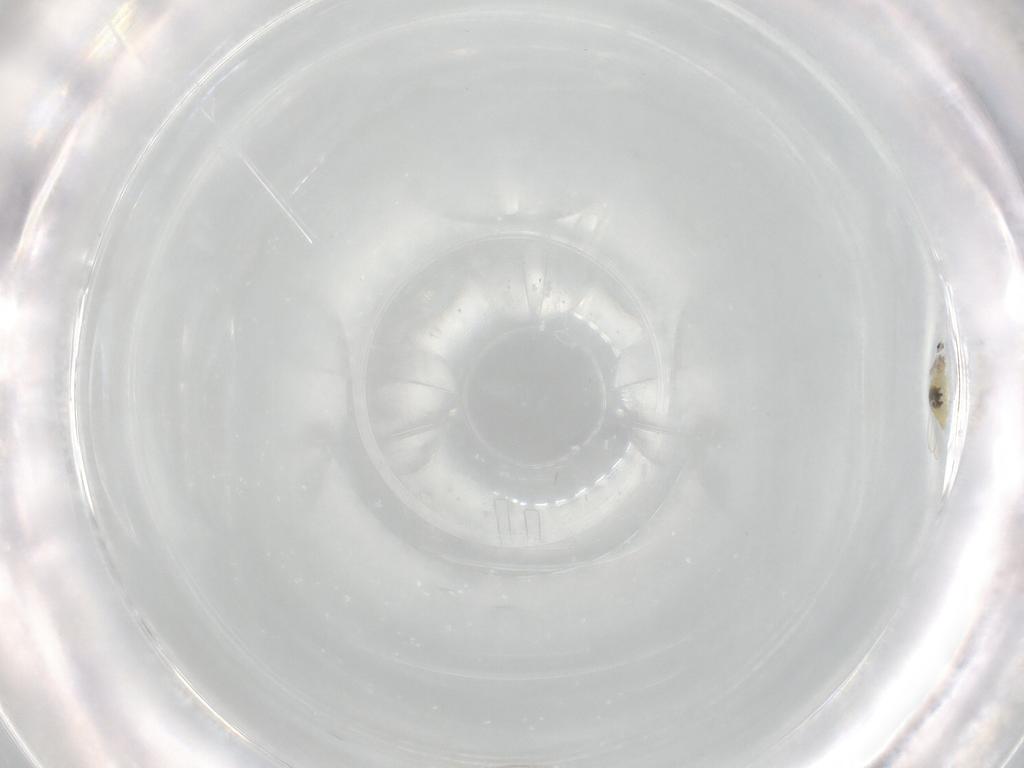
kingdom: Animalia
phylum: Arthropoda
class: Insecta
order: Diptera
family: Cecidomyiidae
